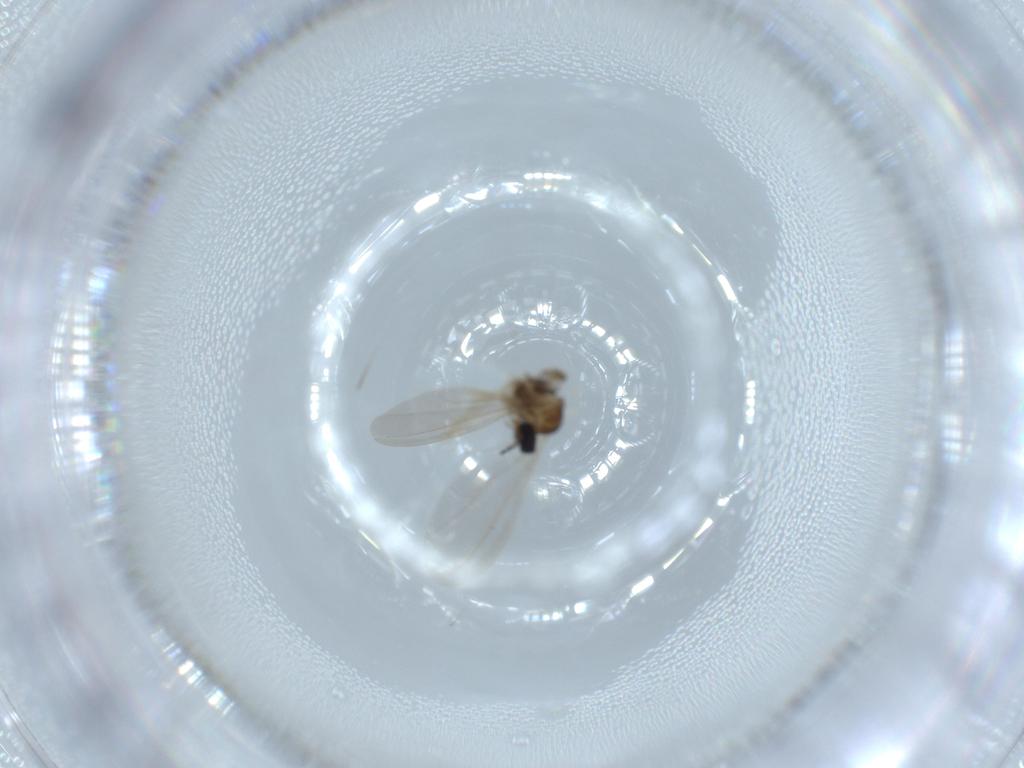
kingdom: Animalia
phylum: Arthropoda
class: Insecta
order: Diptera
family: Cecidomyiidae
